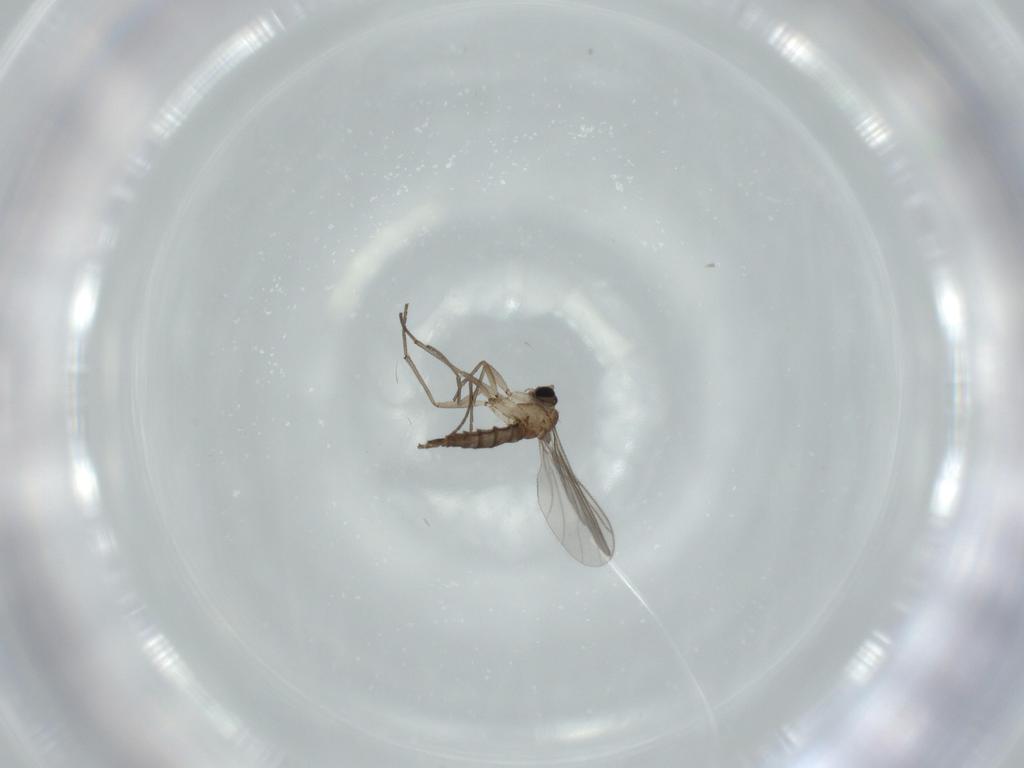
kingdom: Animalia
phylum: Arthropoda
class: Insecta
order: Diptera
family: Sciaridae
